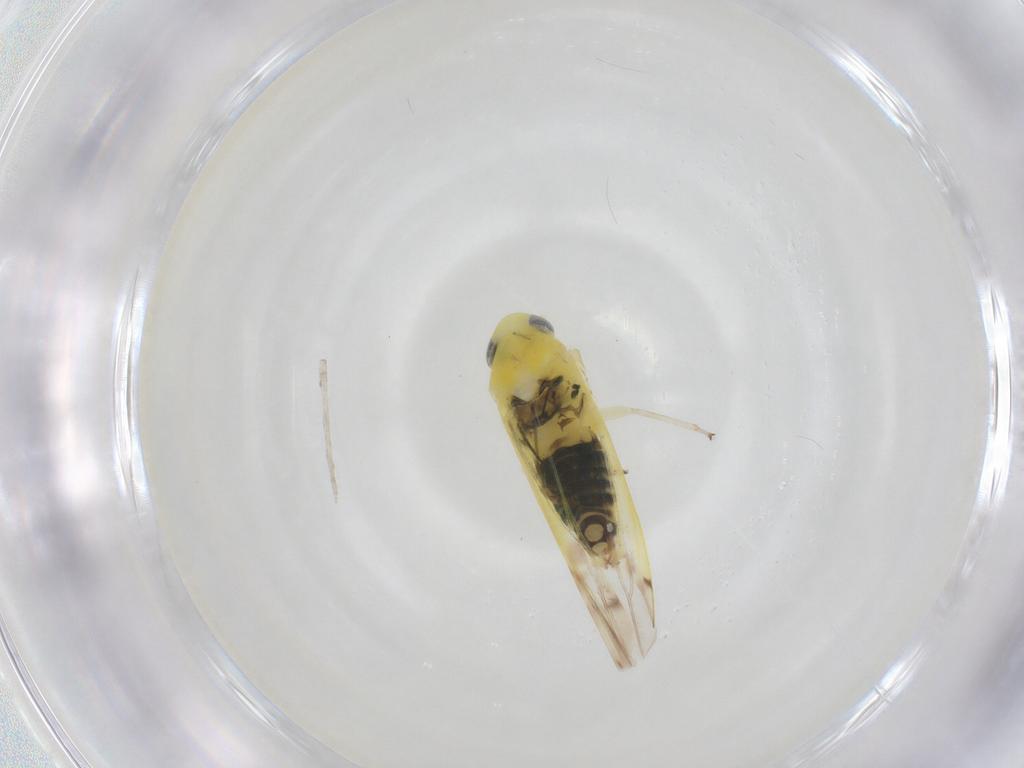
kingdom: Animalia
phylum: Arthropoda
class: Insecta
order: Hemiptera
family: Cicadellidae
